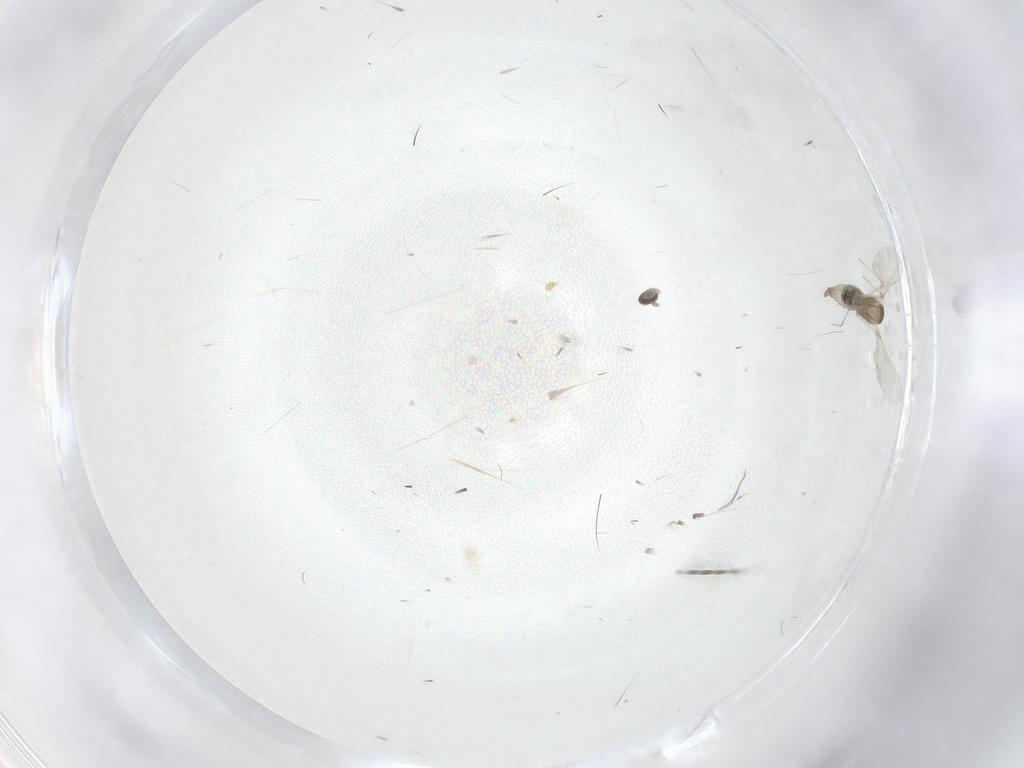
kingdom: Animalia
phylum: Arthropoda
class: Insecta
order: Diptera
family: Cecidomyiidae
